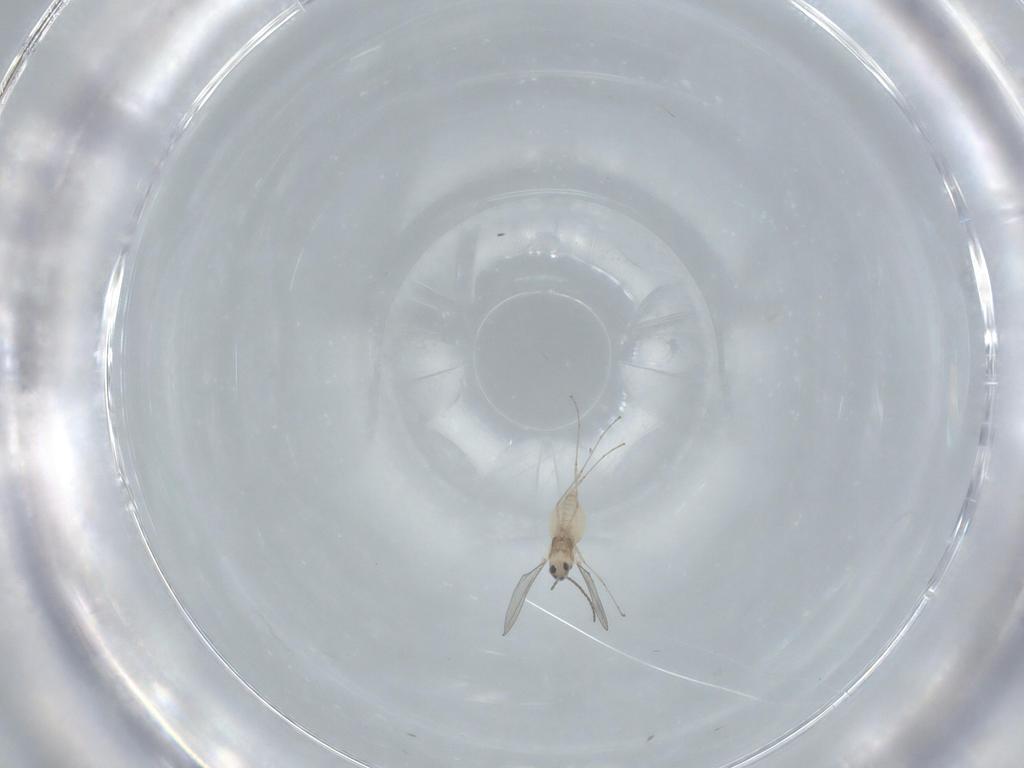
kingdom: Animalia
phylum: Arthropoda
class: Insecta
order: Diptera
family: Cecidomyiidae
